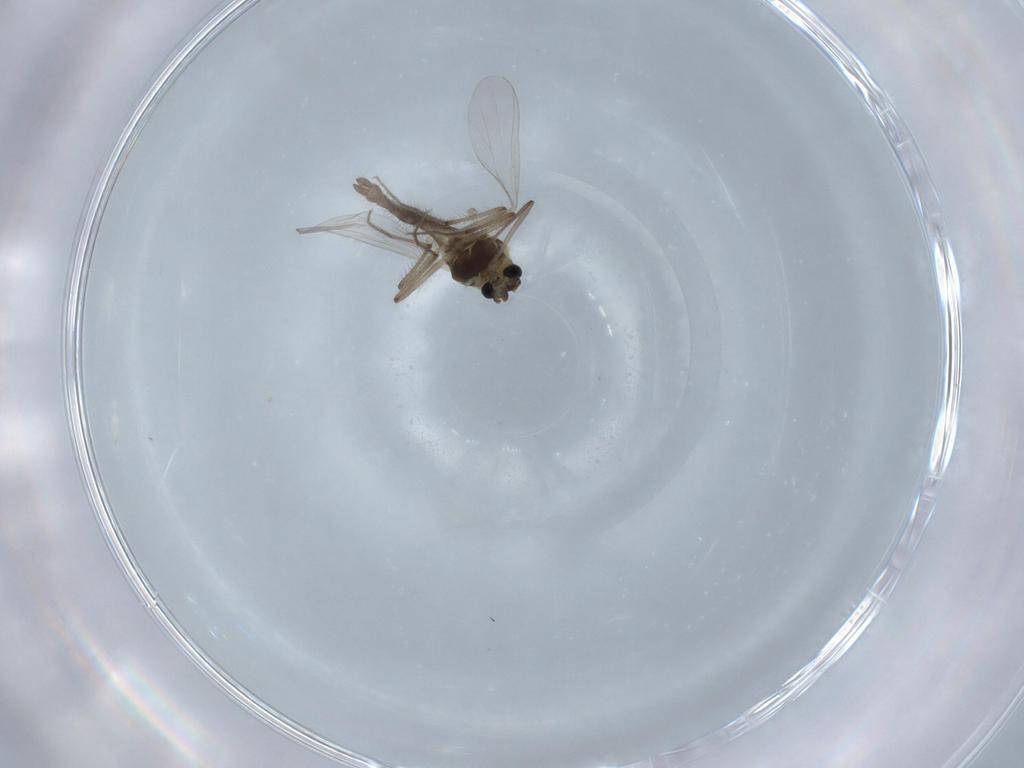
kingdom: Animalia
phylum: Arthropoda
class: Insecta
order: Diptera
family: Chironomidae
